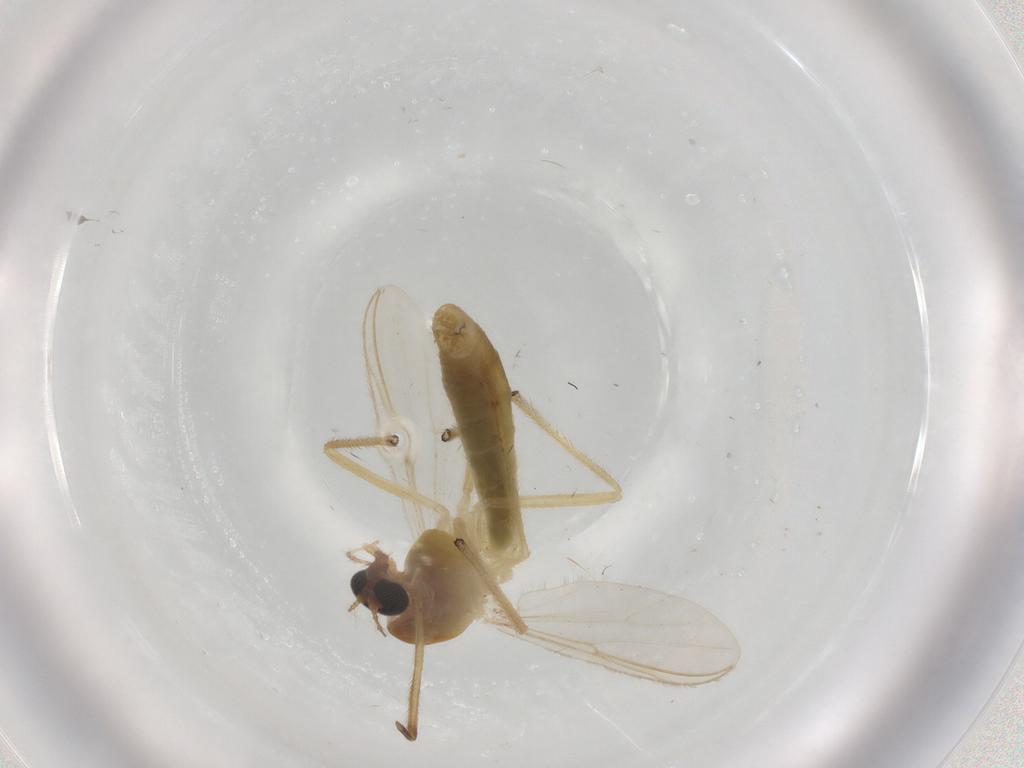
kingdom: Animalia
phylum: Arthropoda
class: Insecta
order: Diptera
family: Chironomidae
